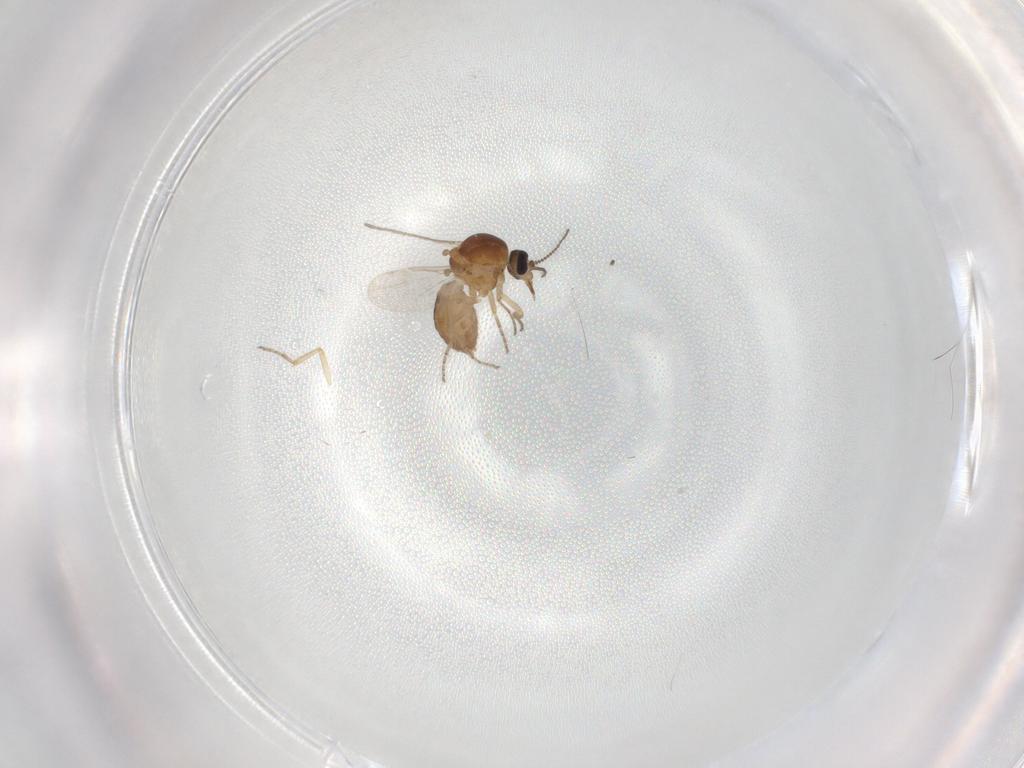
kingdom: Animalia
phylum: Arthropoda
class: Insecta
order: Diptera
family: Ceratopogonidae
